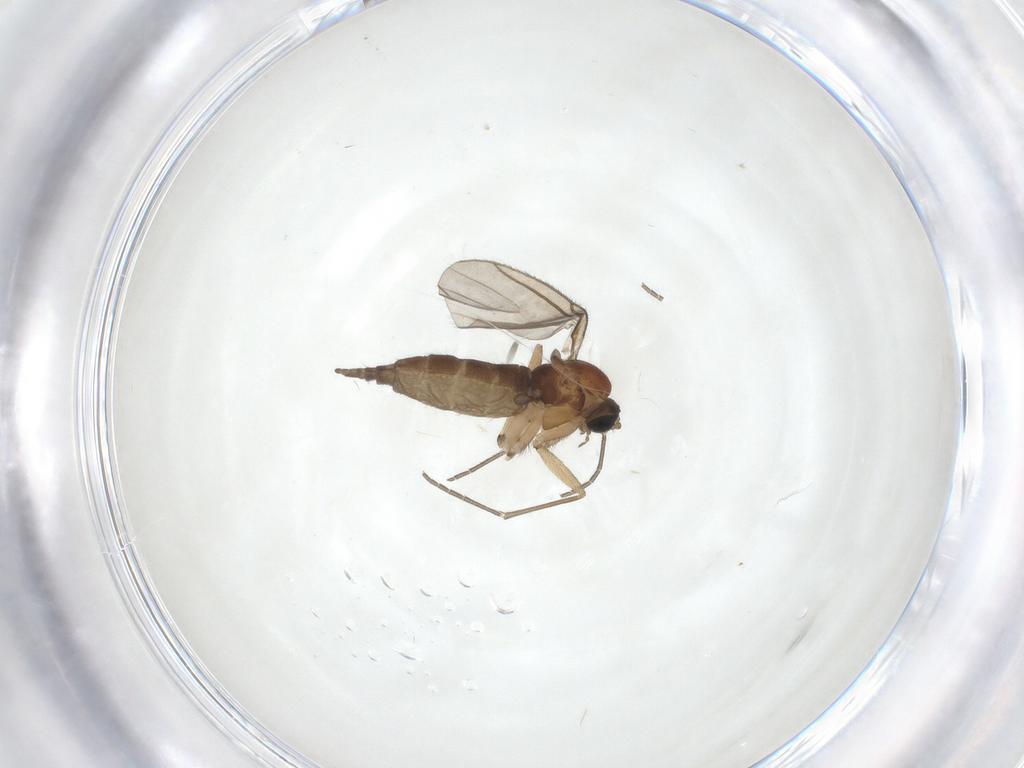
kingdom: Animalia
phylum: Arthropoda
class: Insecta
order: Diptera
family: Sciaridae
